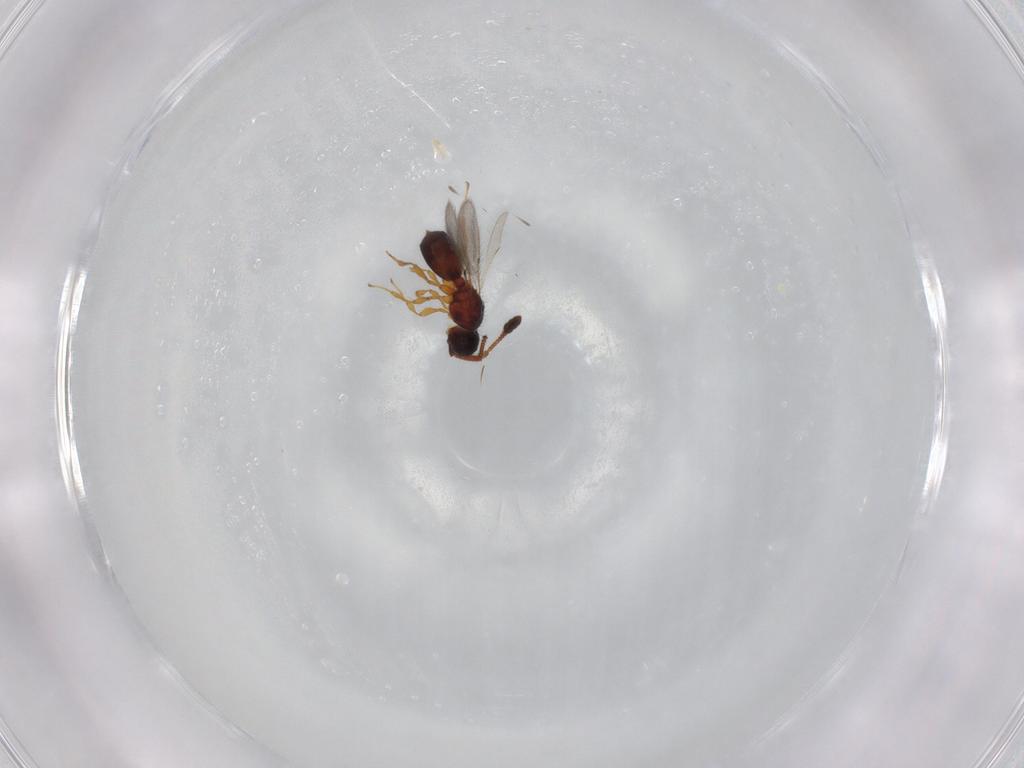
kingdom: Animalia
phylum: Arthropoda
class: Insecta
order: Hymenoptera
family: Diapriidae
